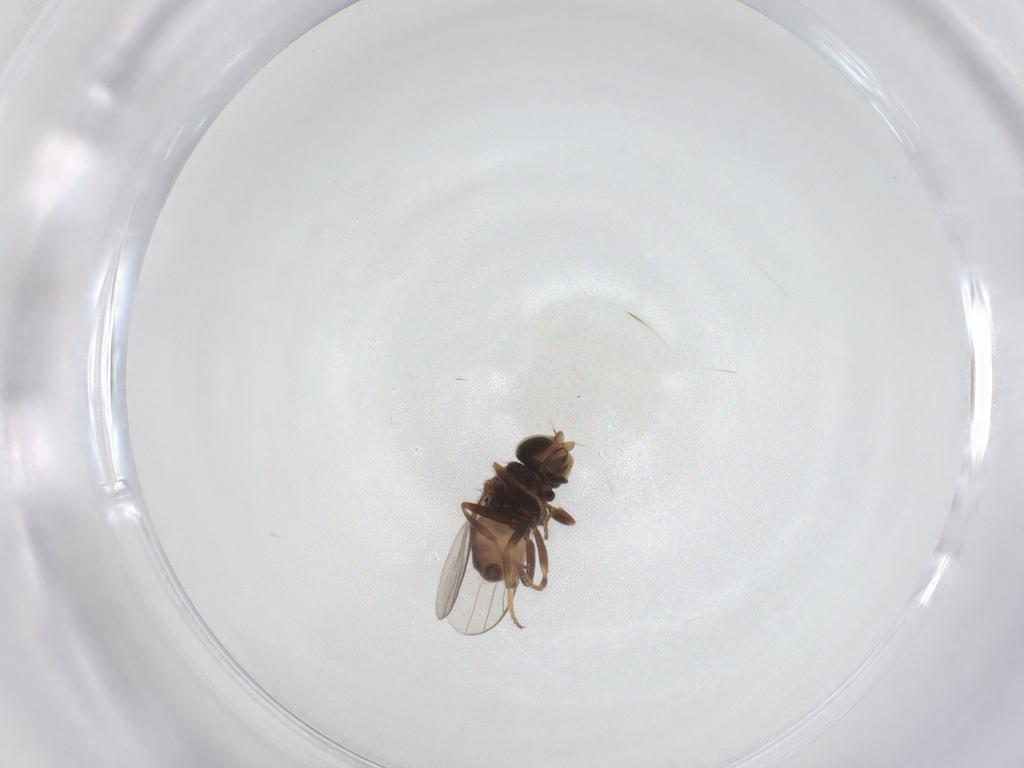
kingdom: Animalia
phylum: Arthropoda
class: Insecta
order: Diptera
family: Chloropidae
